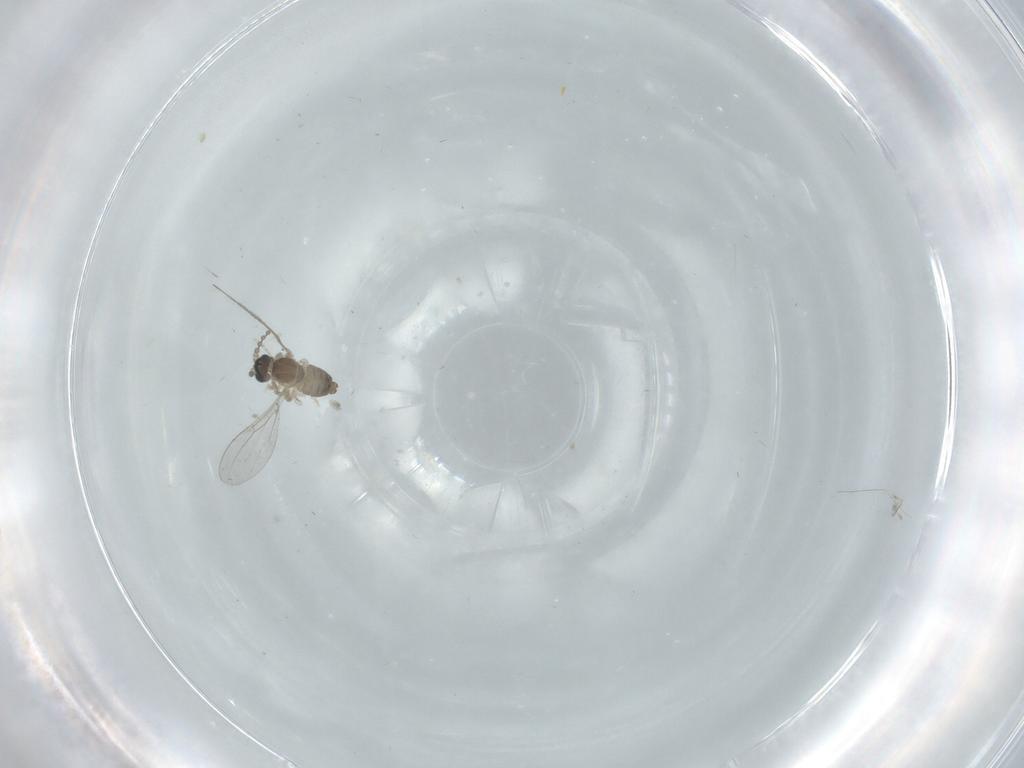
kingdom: Animalia
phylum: Arthropoda
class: Insecta
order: Diptera
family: Cecidomyiidae
